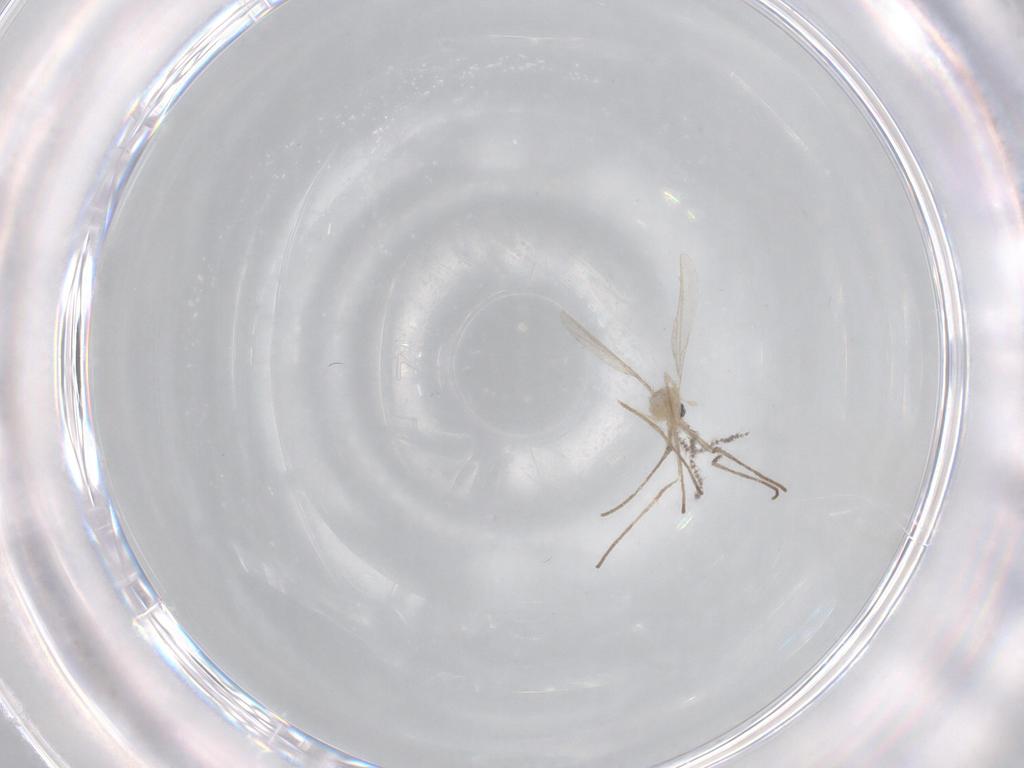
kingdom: Animalia
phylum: Arthropoda
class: Insecta
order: Diptera
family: Cecidomyiidae
